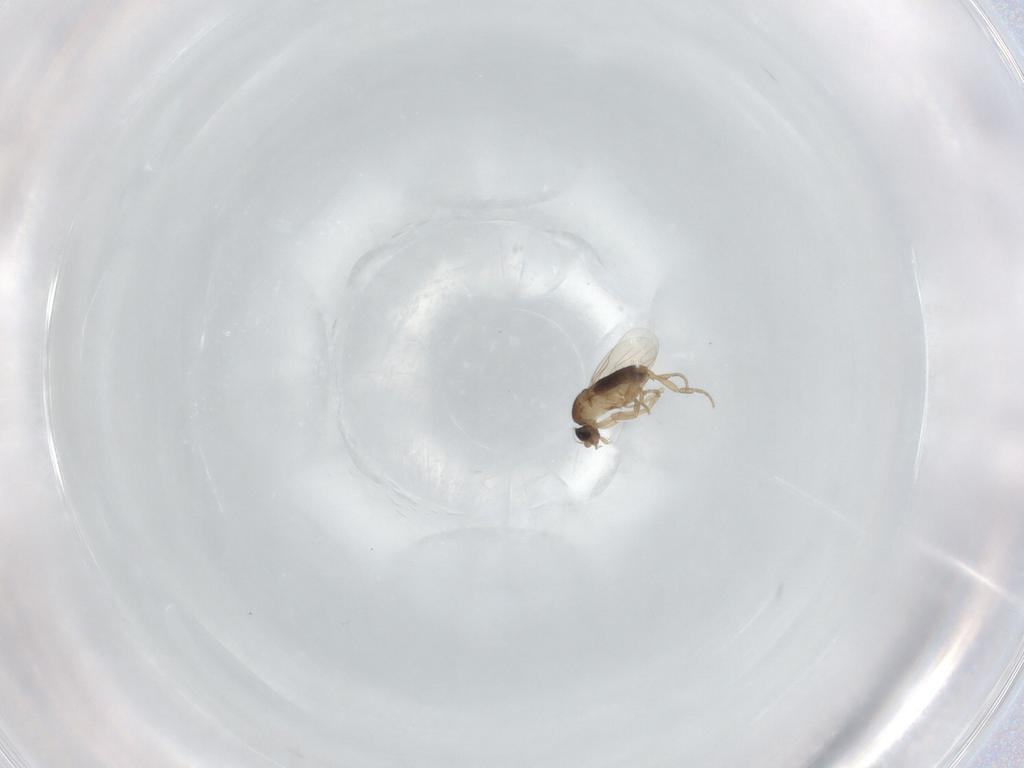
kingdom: Animalia
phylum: Arthropoda
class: Insecta
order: Diptera
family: Phoridae
